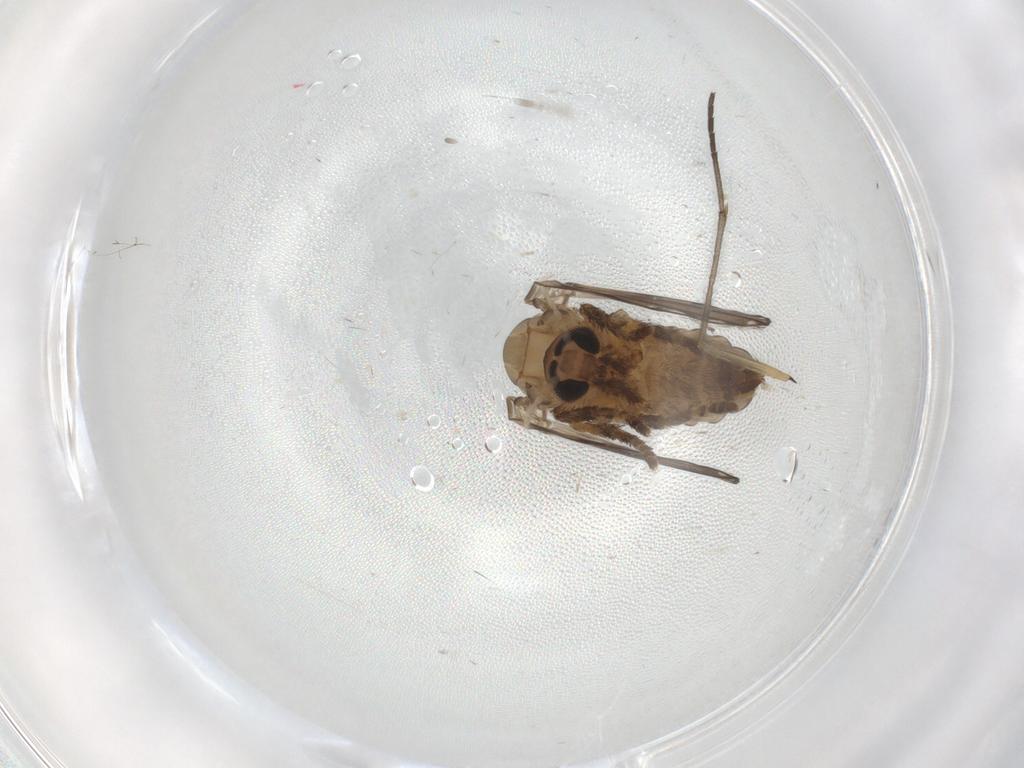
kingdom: Animalia
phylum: Arthropoda
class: Insecta
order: Diptera
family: Psychodidae
